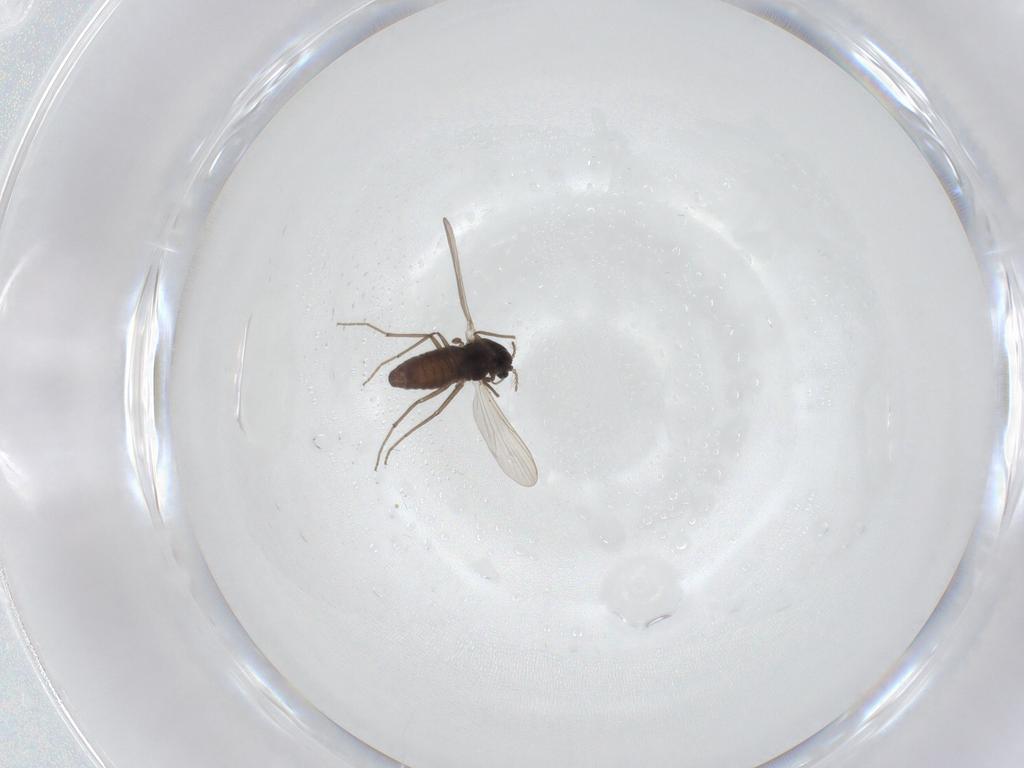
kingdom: Animalia
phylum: Arthropoda
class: Insecta
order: Diptera
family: Chironomidae
